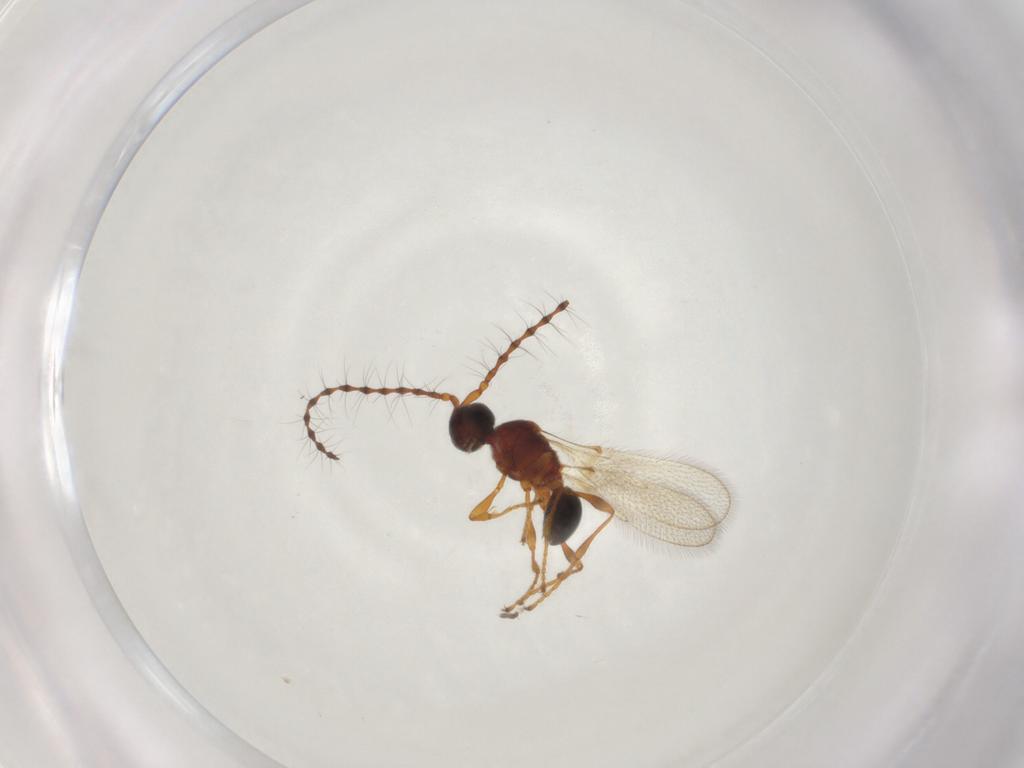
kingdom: Animalia
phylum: Arthropoda
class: Insecta
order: Hymenoptera
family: Diapriidae
